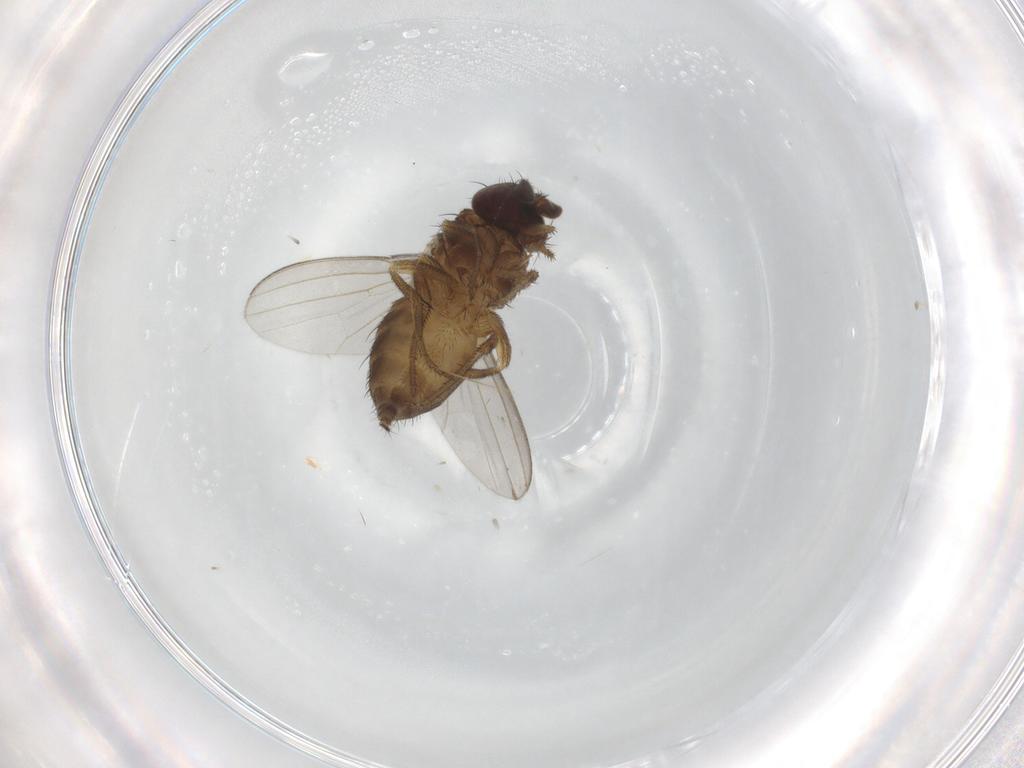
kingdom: Animalia
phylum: Arthropoda
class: Insecta
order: Diptera
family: Milichiidae
